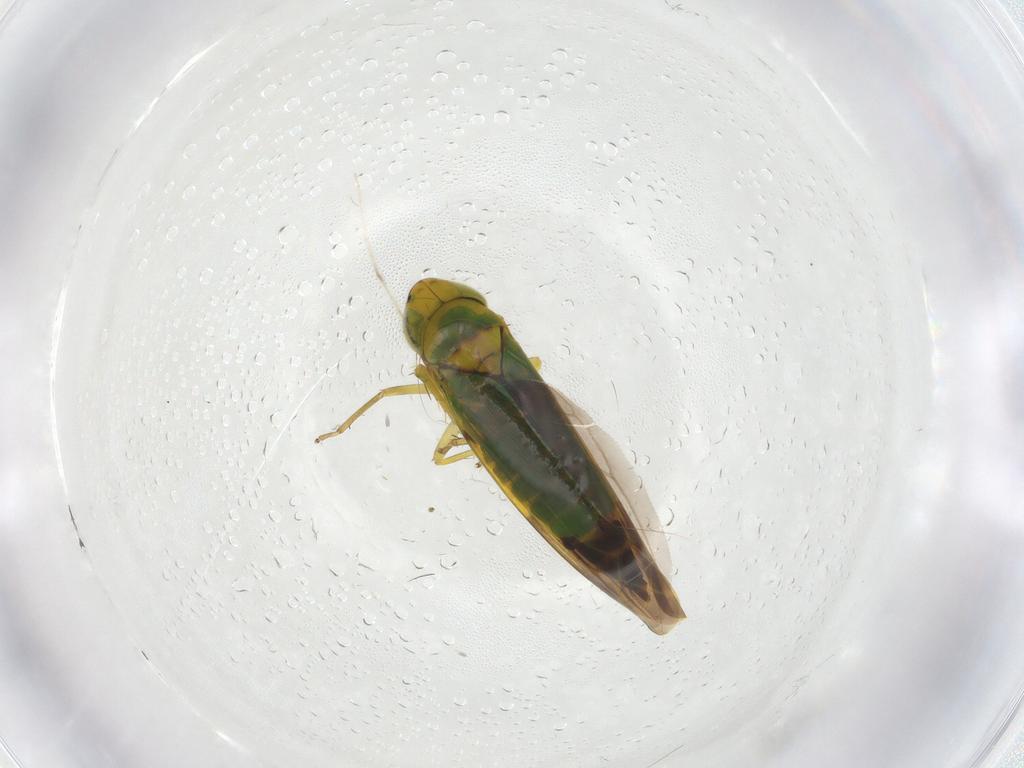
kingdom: Animalia
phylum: Arthropoda
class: Insecta
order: Hemiptera
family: Cicadellidae
